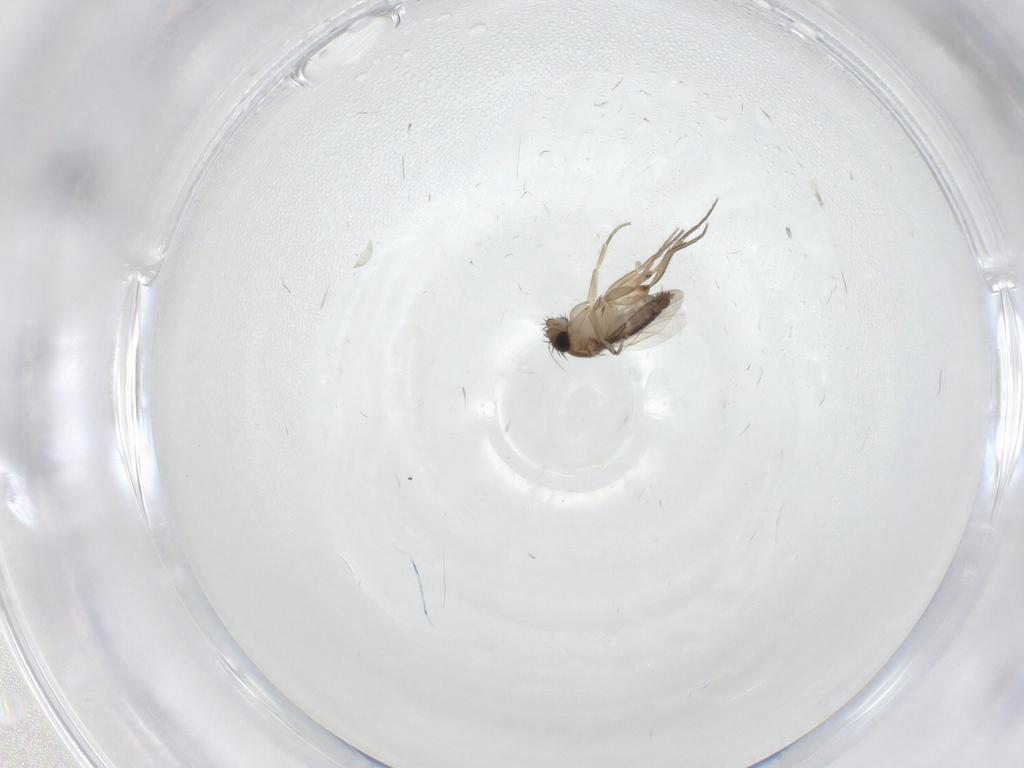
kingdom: Animalia
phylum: Arthropoda
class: Insecta
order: Diptera
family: Phoridae
